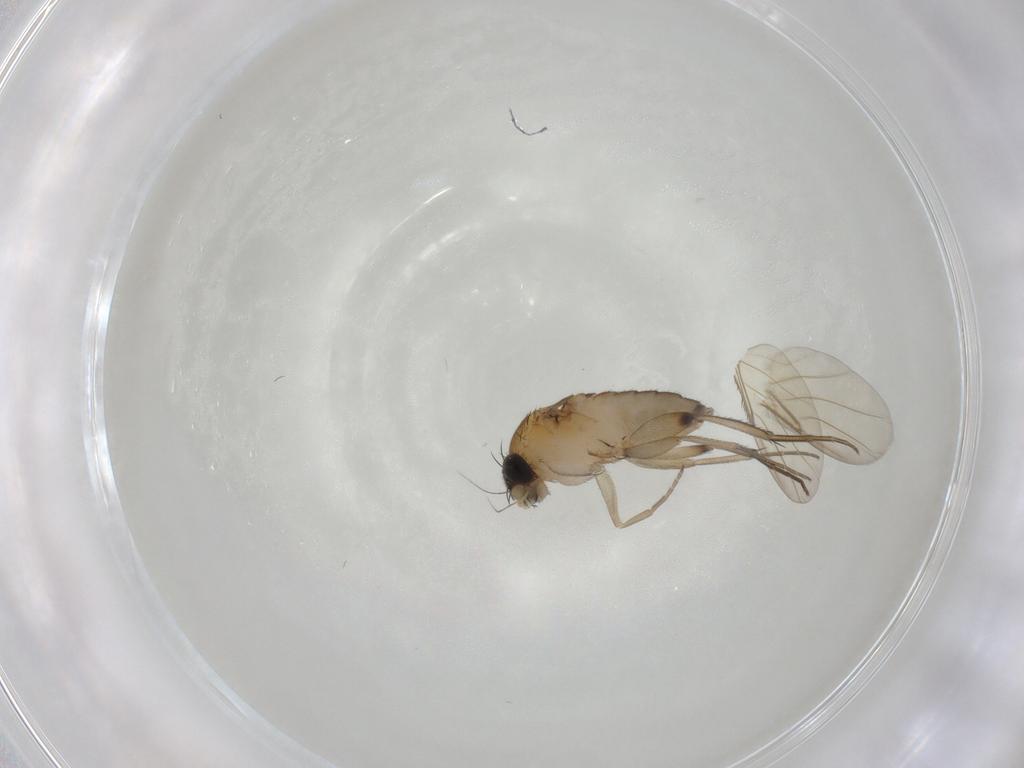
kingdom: Animalia
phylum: Arthropoda
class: Insecta
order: Diptera
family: Phoridae
